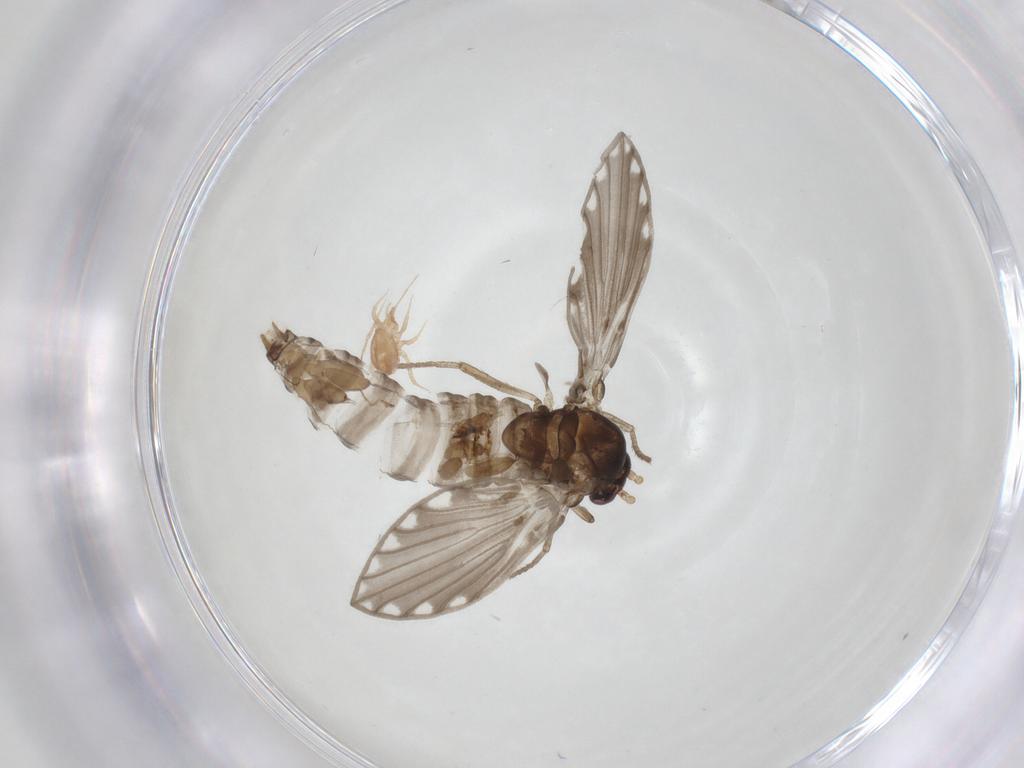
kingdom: Animalia
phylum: Arthropoda
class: Insecta
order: Diptera
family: Psychodidae
